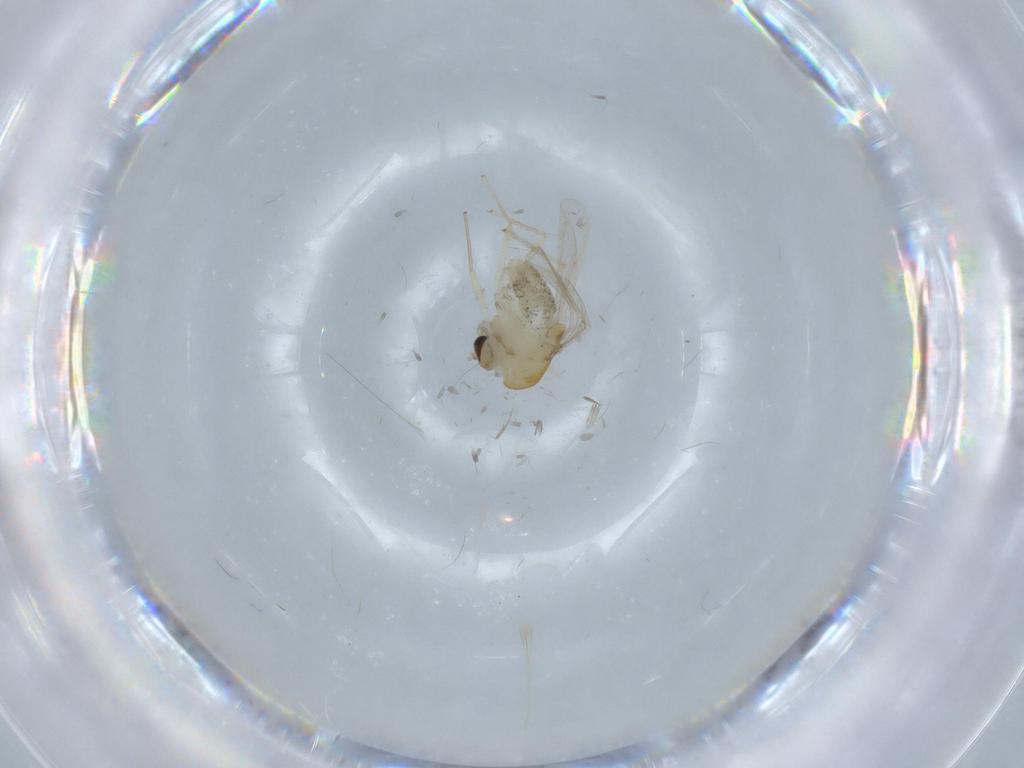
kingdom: Animalia
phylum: Arthropoda
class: Insecta
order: Diptera
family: Chironomidae
